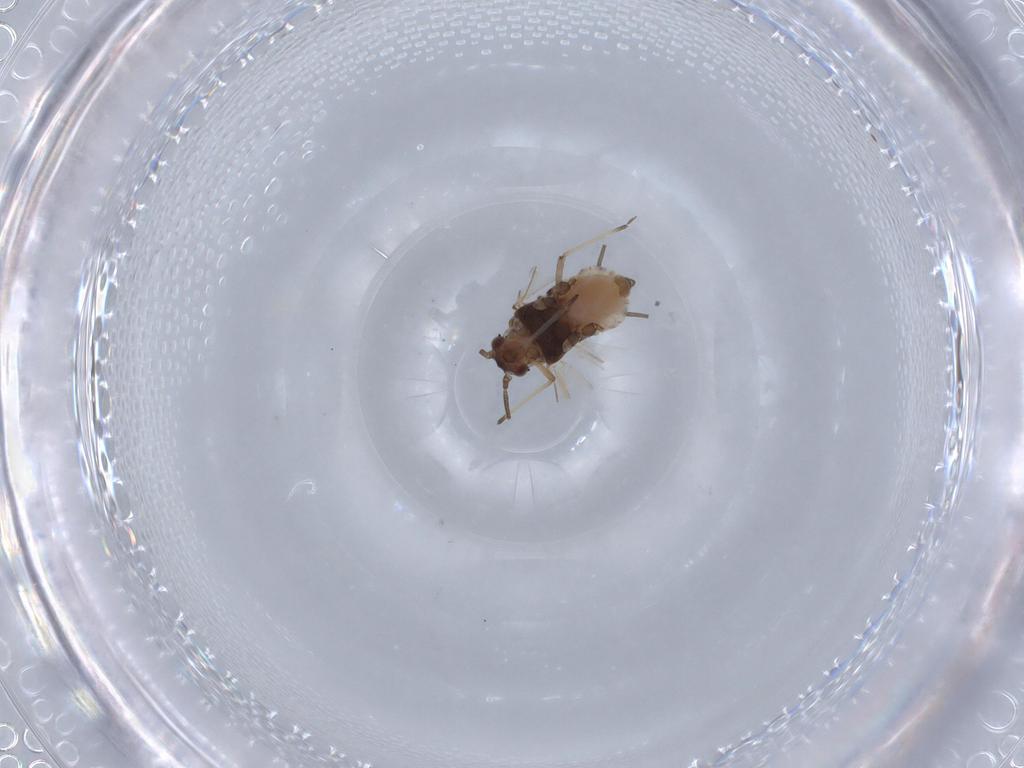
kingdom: Animalia
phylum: Arthropoda
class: Insecta
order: Hemiptera
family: Aphididae
